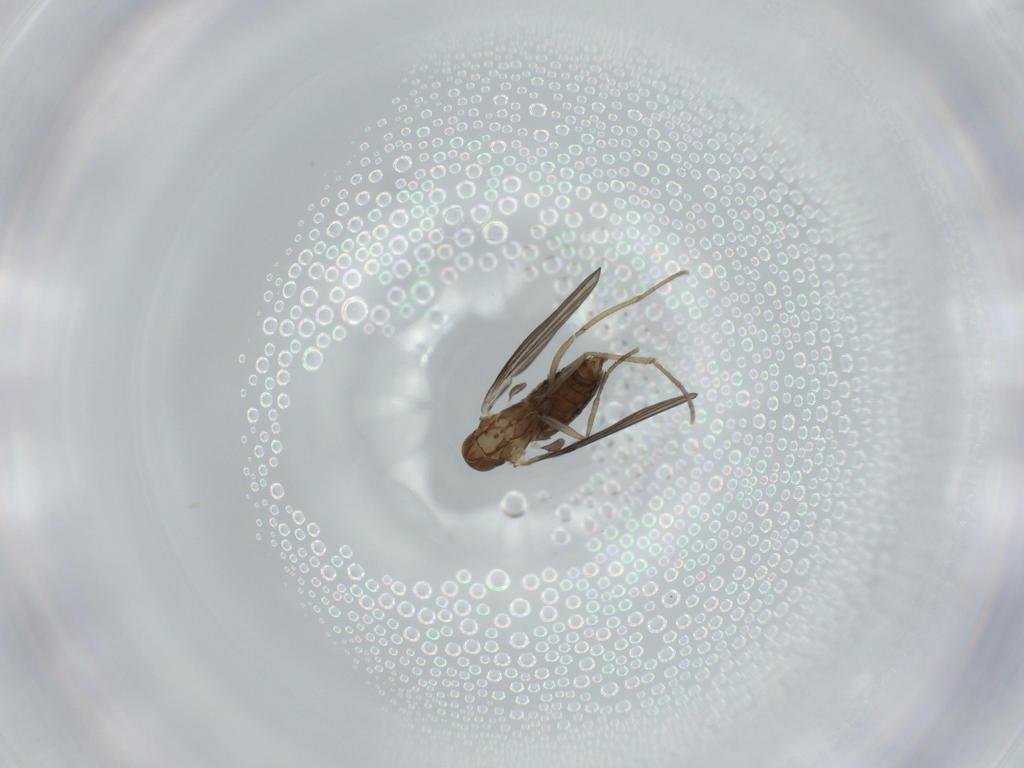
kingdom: Animalia
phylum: Arthropoda
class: Insecta
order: Diptera
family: Psychodidae
